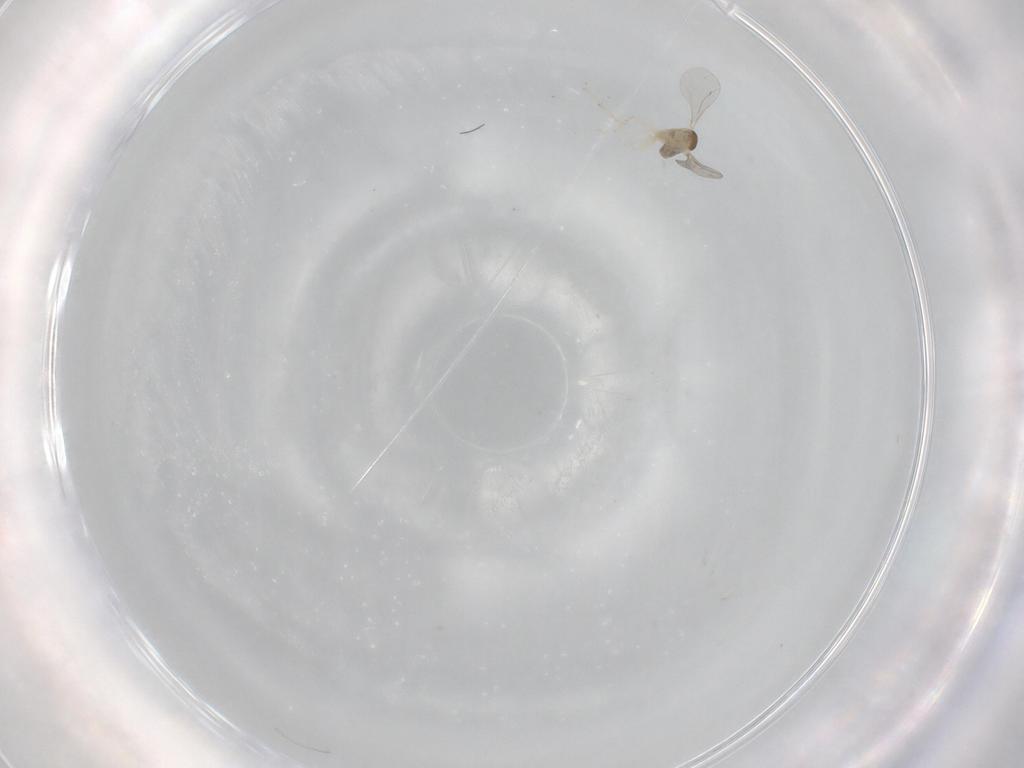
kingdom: Animalia
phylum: Arthropoda
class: Insecta
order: Diptera
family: Cecidomyiidae
